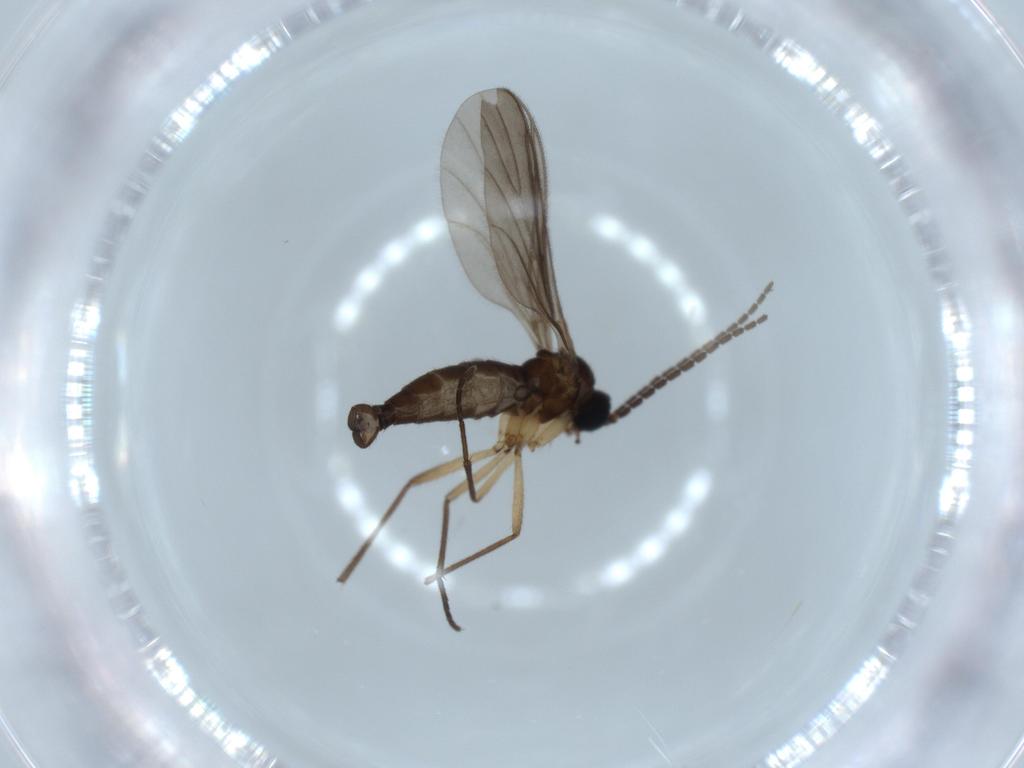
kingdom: Animalia
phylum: Arthropoda
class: Insecta
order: Diptera
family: Sciaridae
